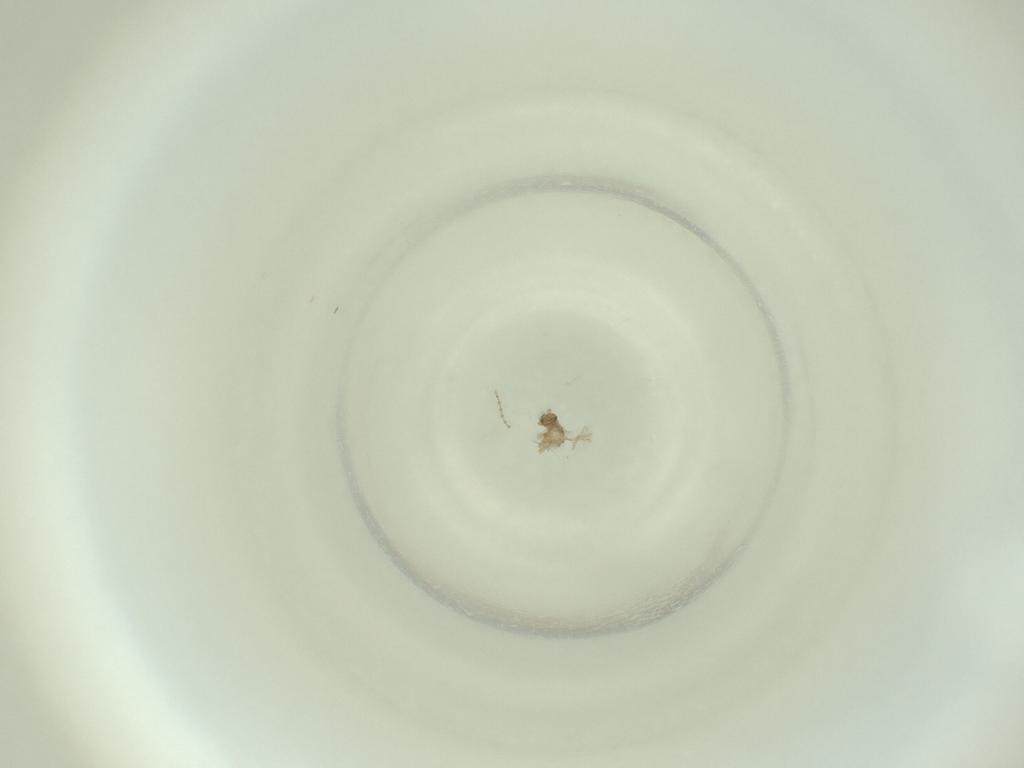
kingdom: Animalia
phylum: Arthropoda
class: Insecta
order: Diptera
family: Cecidomyiidae
